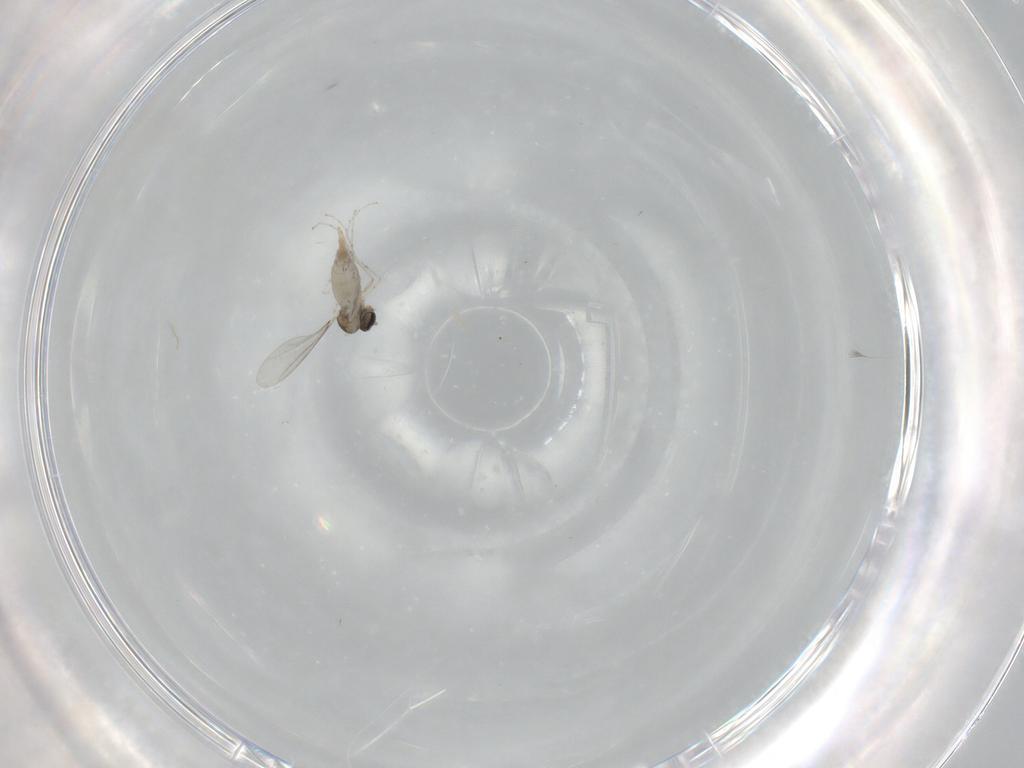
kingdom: Animalia
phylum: Arthropoda
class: Insecta
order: Diptera
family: Cecidomyiidae
